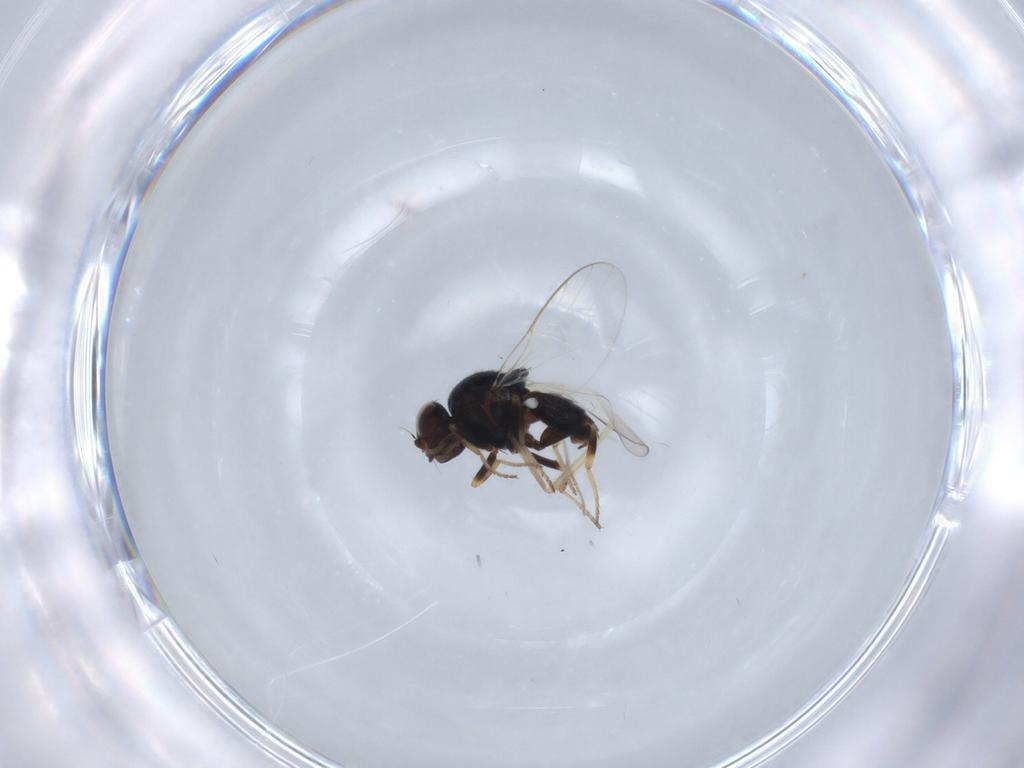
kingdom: Animalia
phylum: Arthropoda
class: Insecta
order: Diptera
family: Chloropidae
